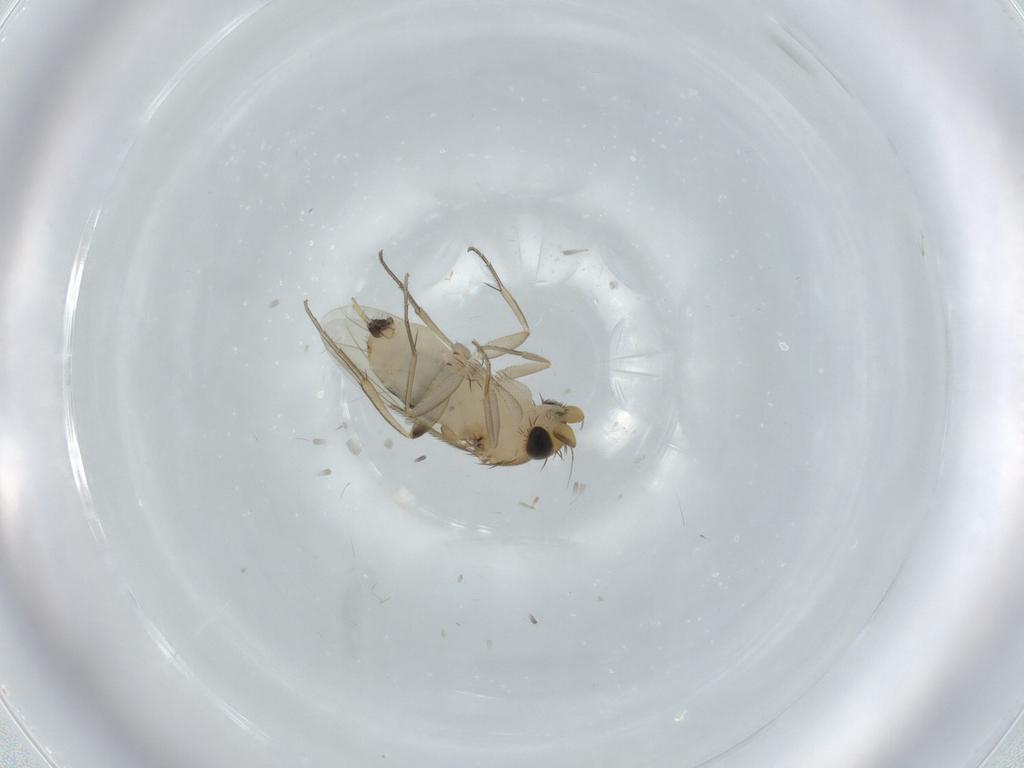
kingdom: Animalia
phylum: Arthropoda
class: Insecta
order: Diptera
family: Phoridae
